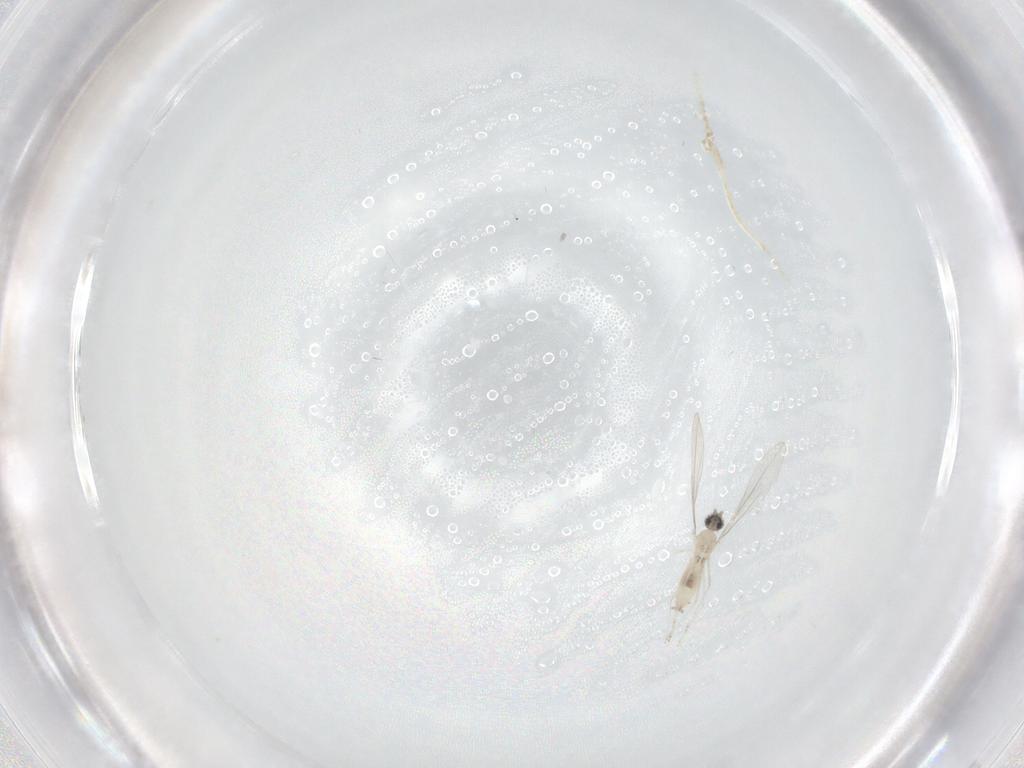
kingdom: Animalia
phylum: Arthropoda
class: Insecta
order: Diptera
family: Cecidomyiidae
